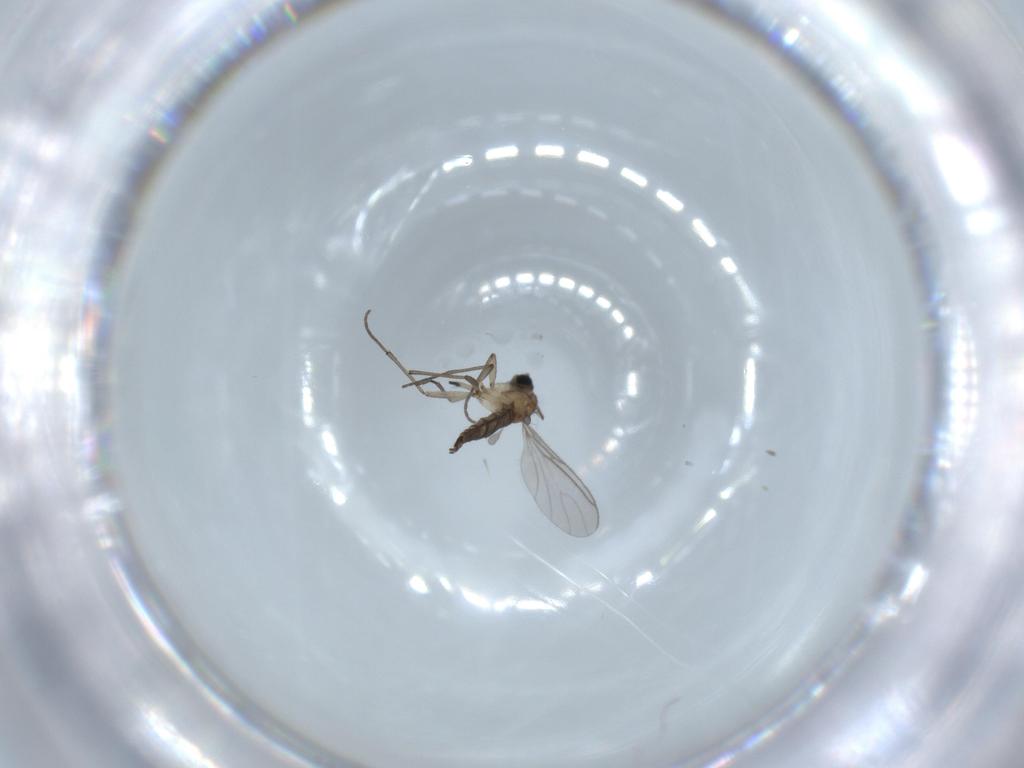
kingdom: Animalia
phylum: Arthropoda
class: Insecta
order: Diptera
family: Sciaridae
